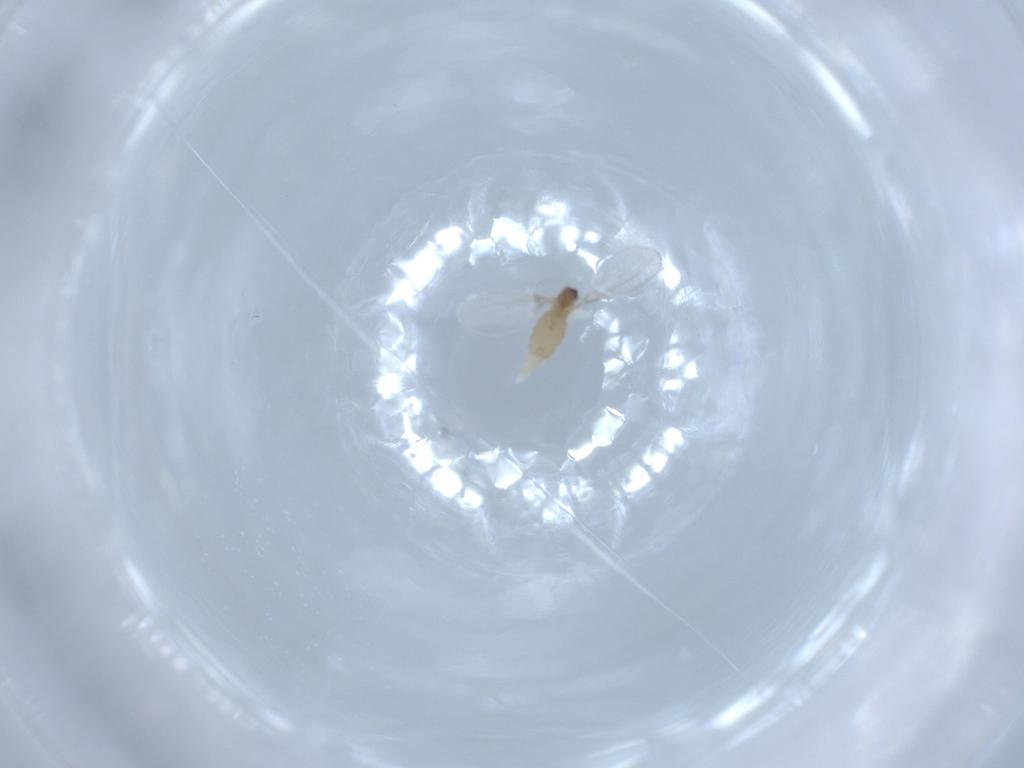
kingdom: Animalia
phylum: Arthropoda
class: Insecta
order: Diptera
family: Cecidomyiidae
